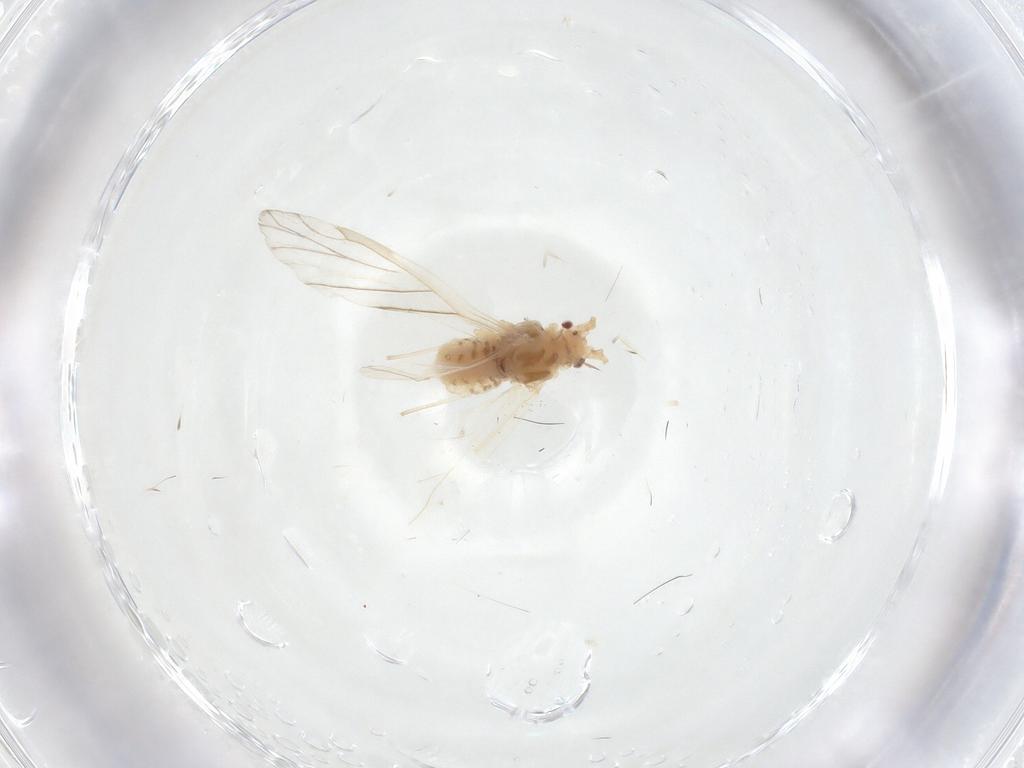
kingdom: Animalia
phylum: Arthropoda
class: Insecta
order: Hemiptera
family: Aphididae
